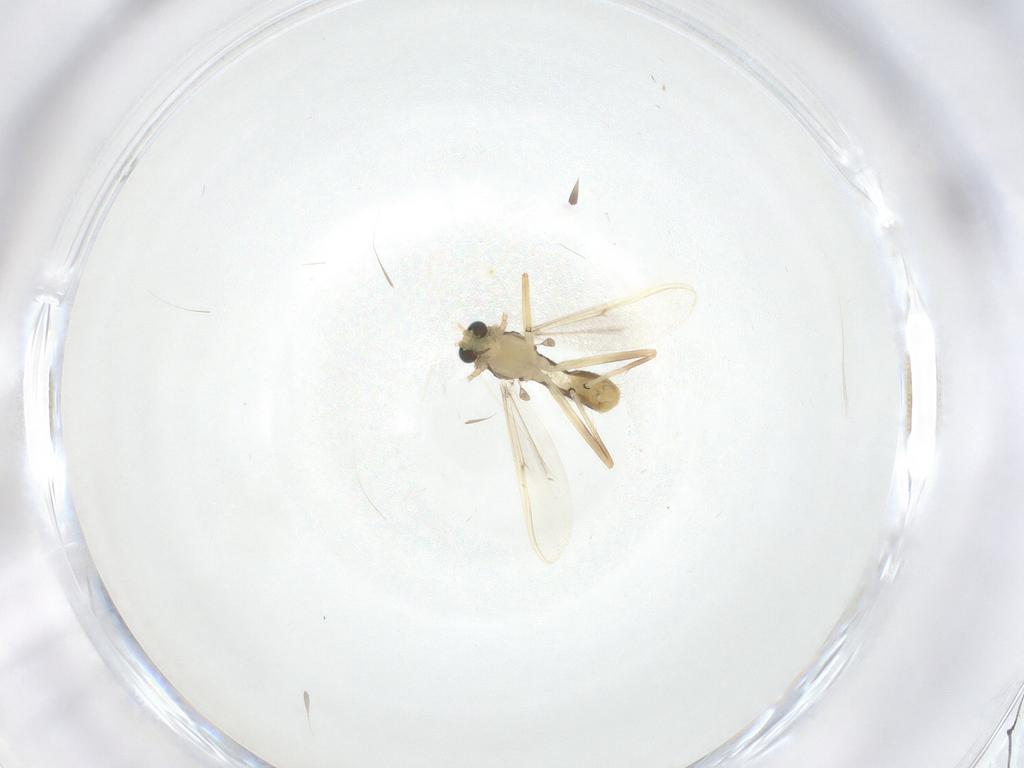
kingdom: Animalia
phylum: Arthropoda
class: Insecta
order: Diptera
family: Chironomidae
